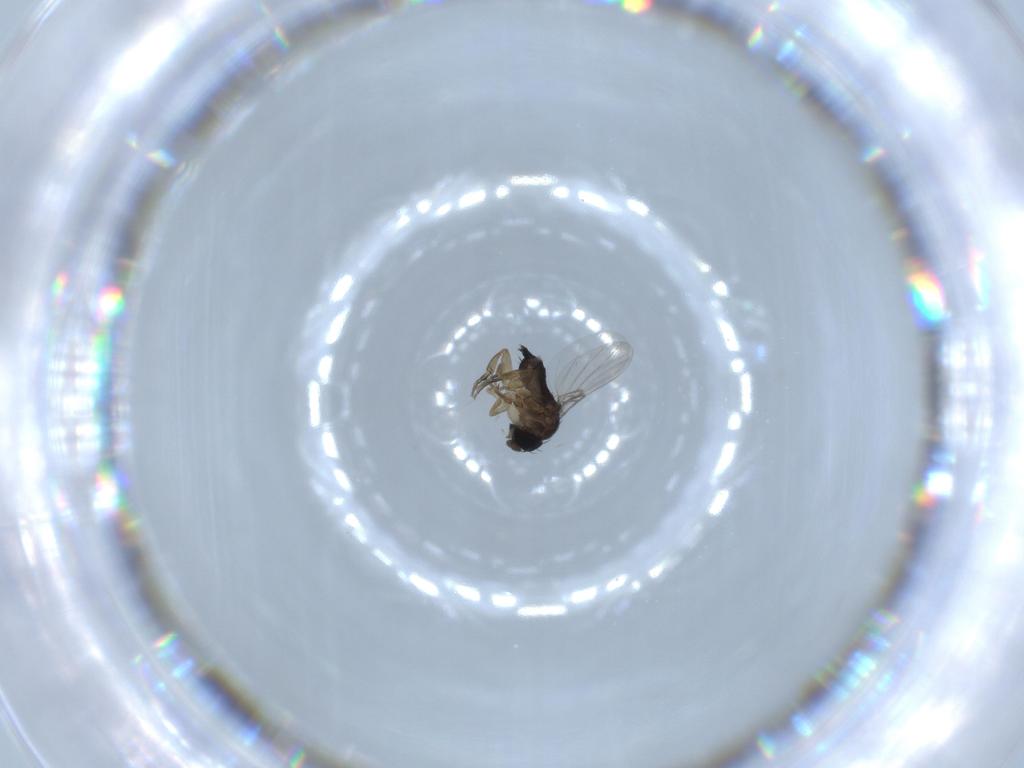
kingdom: Animalia
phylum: Arthropoda
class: Insecta
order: Diptera
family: Phoridae
